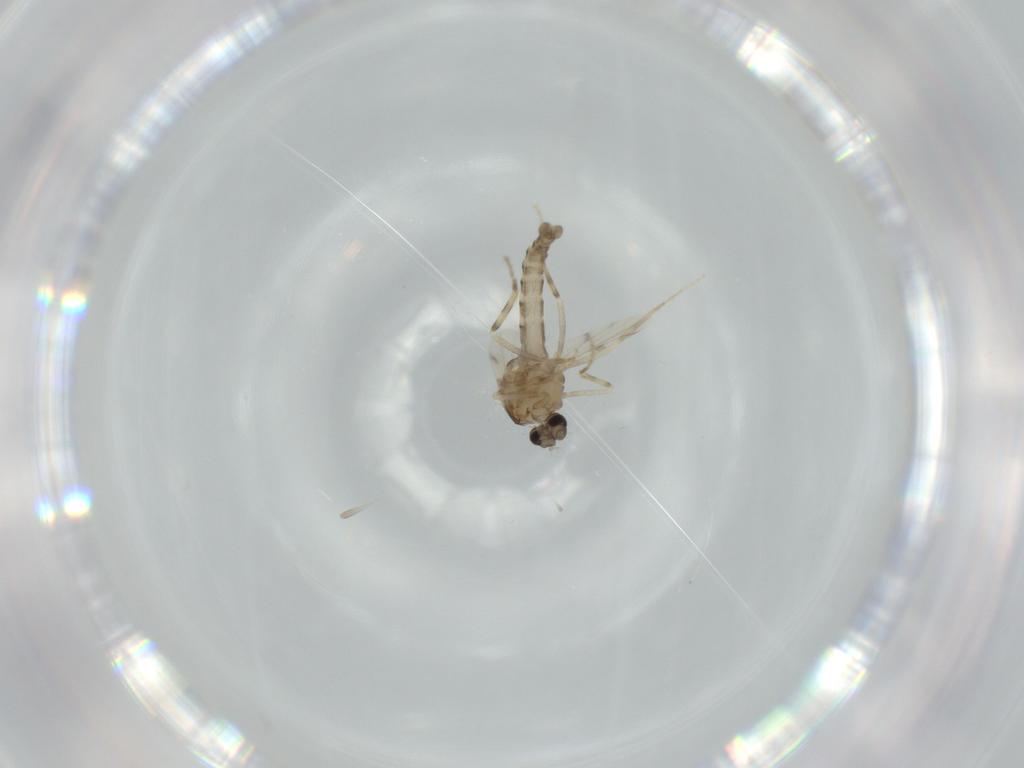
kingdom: Animalia
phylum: Arthropoda
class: Insecta
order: Diptera
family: Ceratopogonidae
